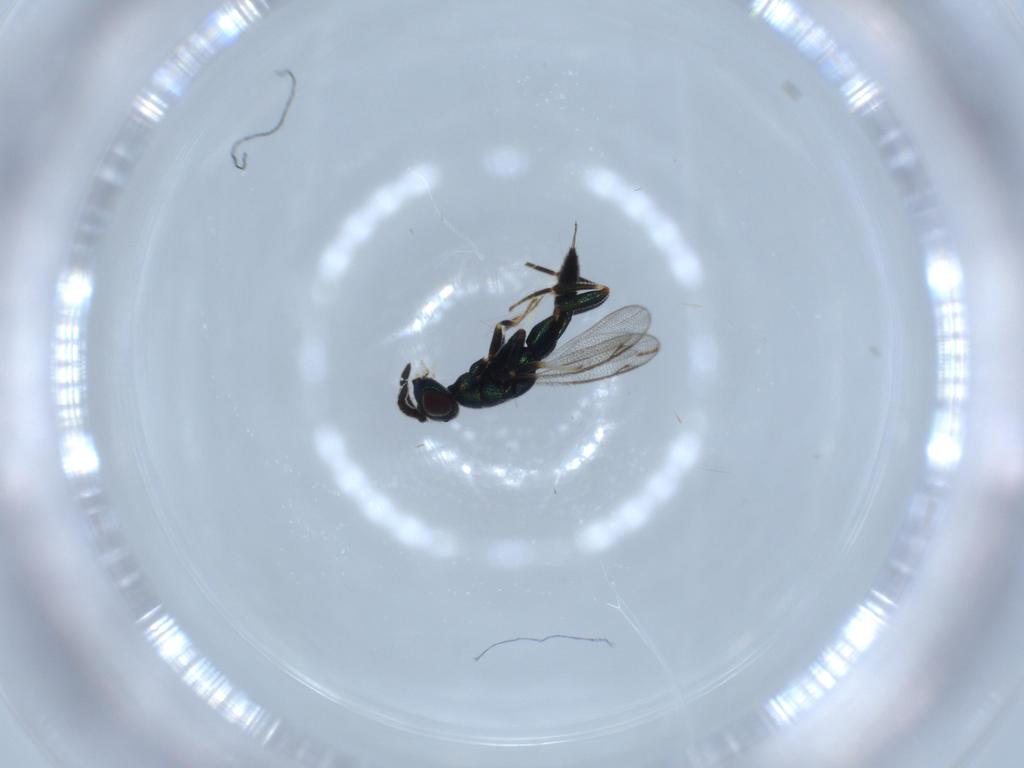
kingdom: Animalia
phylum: Arthropoda
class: Insecta
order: Hymenoptera
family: Cleonyminae
